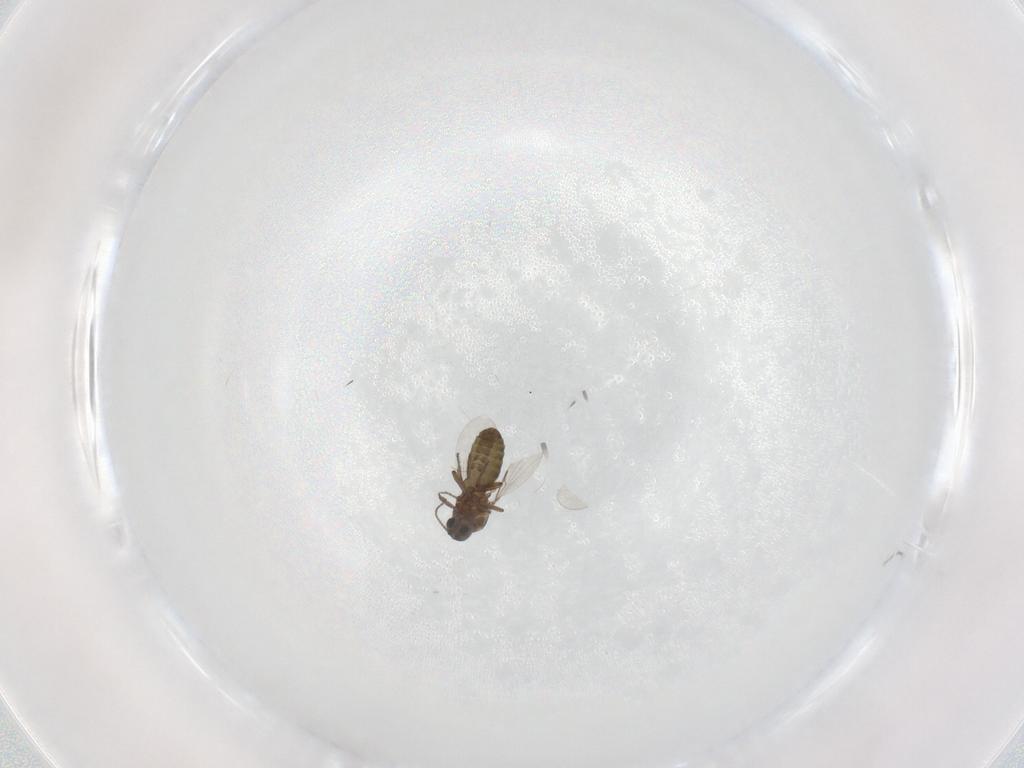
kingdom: Animalia
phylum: Arthropoda
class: Insecta
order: Diptera
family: Ceratopogonidae
